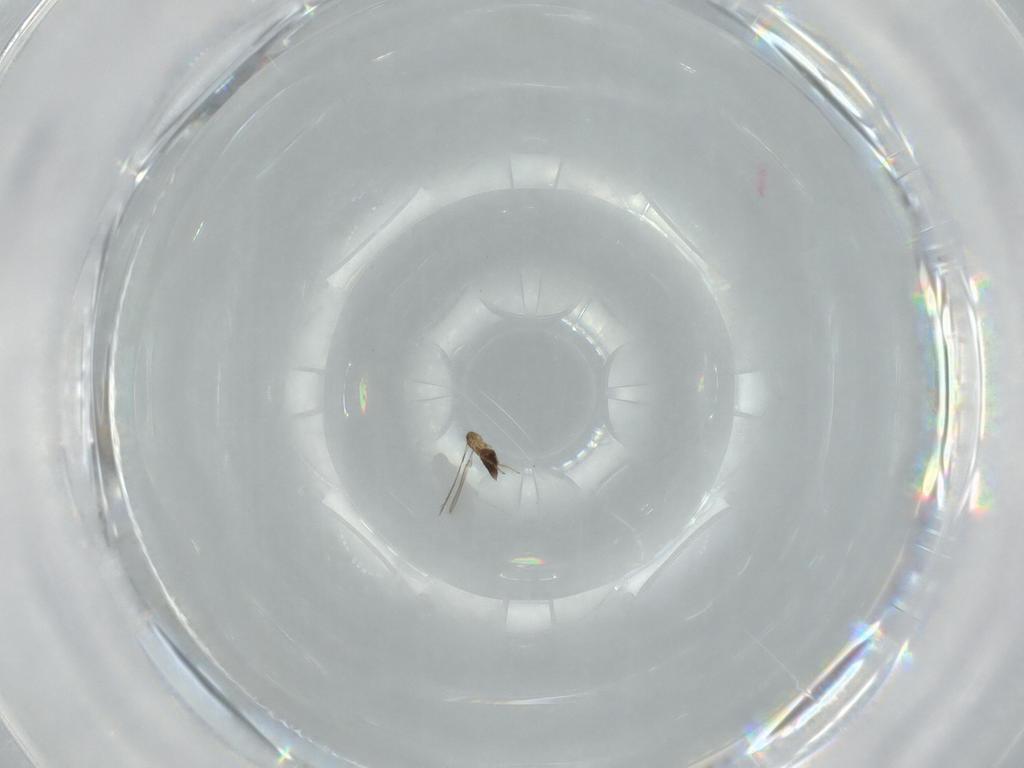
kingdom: Animalia
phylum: Arthropoda
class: Insecta
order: Hymenoptera
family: Mymaridae
